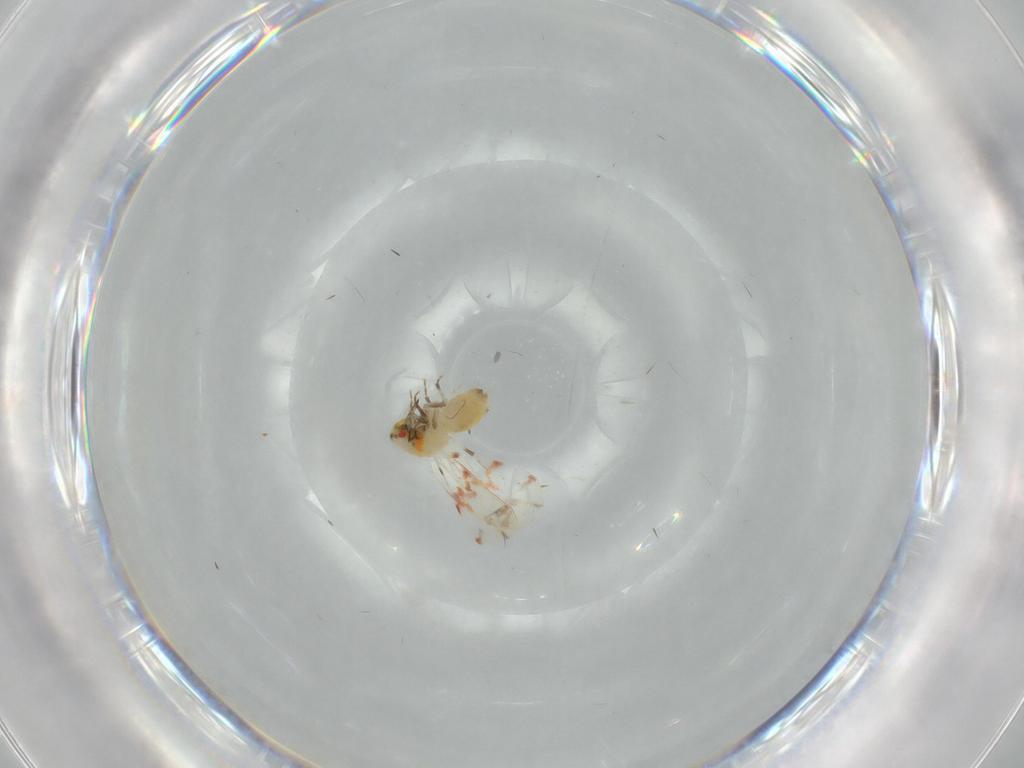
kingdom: Animalia
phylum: Arthropoda
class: Insecta
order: Hemiptera
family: Aleyrodidae
